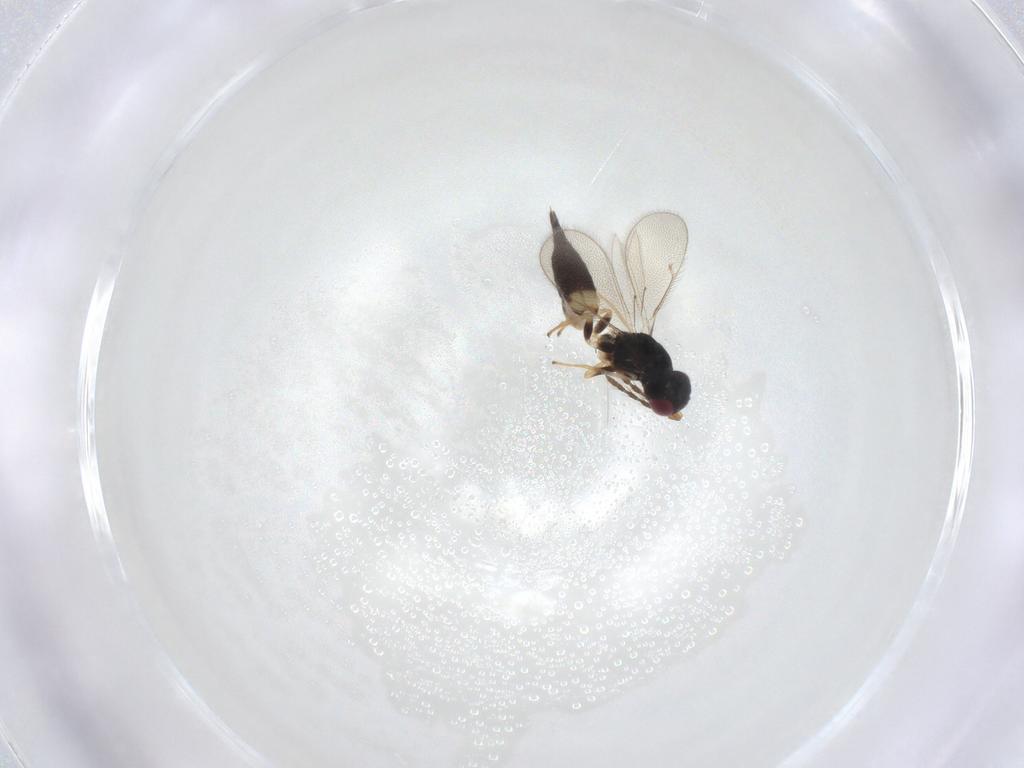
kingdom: Animalia
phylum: Arthropoda
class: Insecta
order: Hymenoptera
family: Eulophidae
